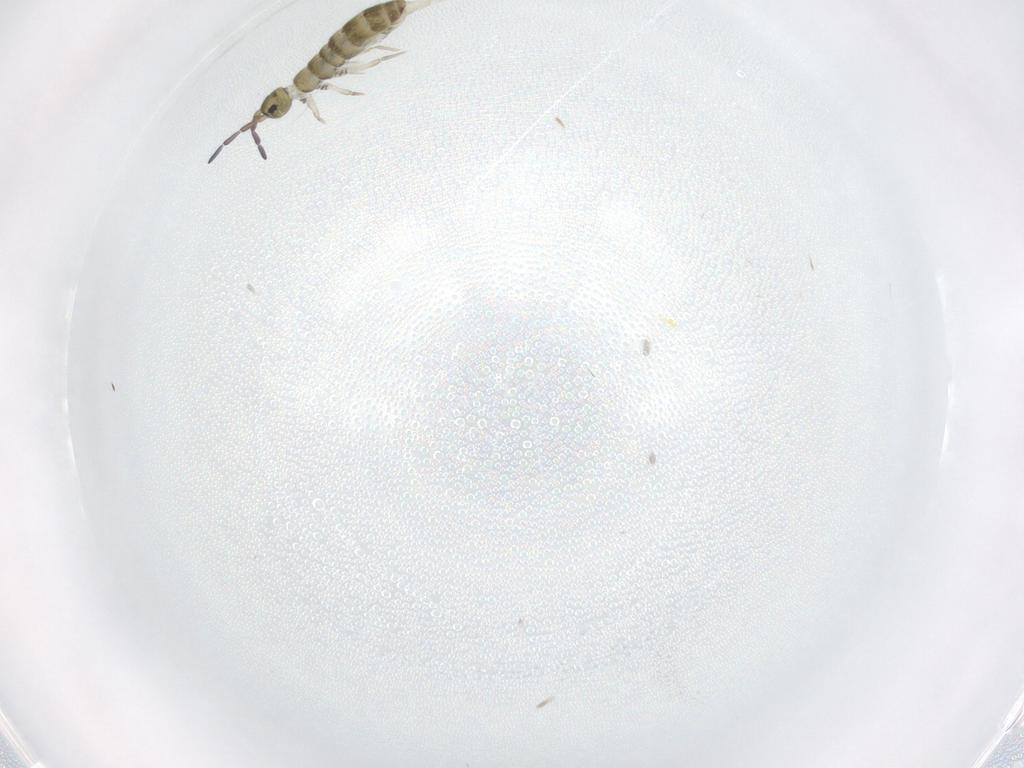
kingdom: Animalia
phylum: Arthropoda
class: Collembola
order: Entomobryomorpha
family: Isotomidae
